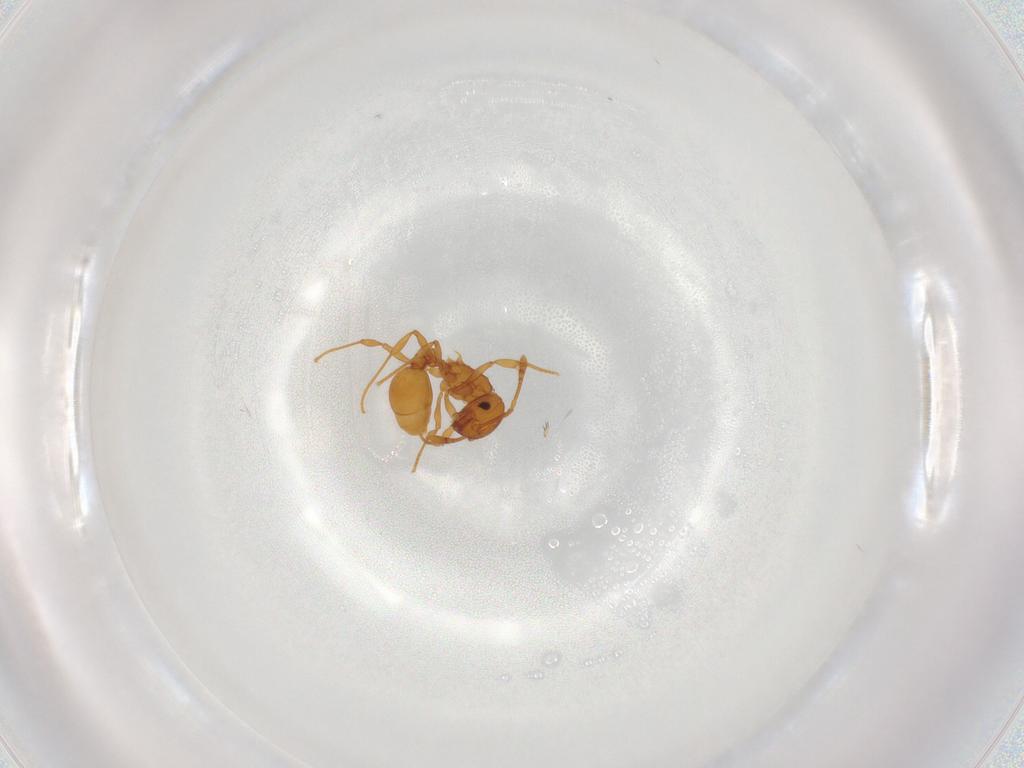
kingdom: Animalia
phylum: Arthropoda
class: Insecta
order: Hymenoptera
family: Formicidae
